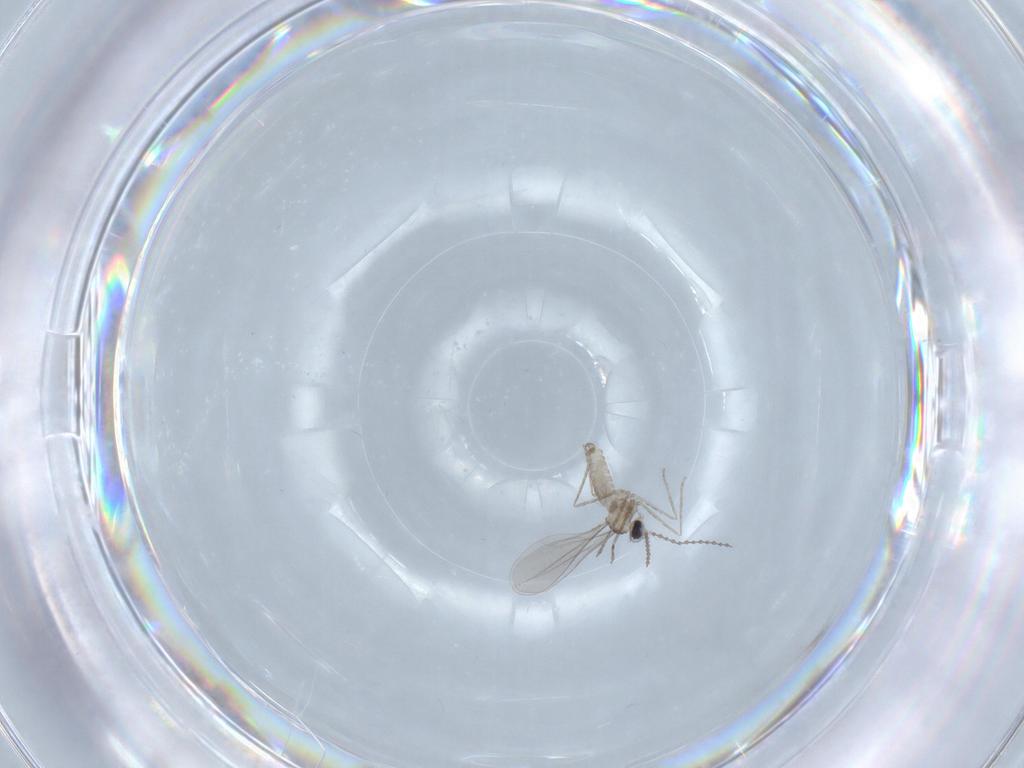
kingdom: Animalia
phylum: Arthropoda
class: Insecta
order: Diptera
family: Cecidomyiidae
